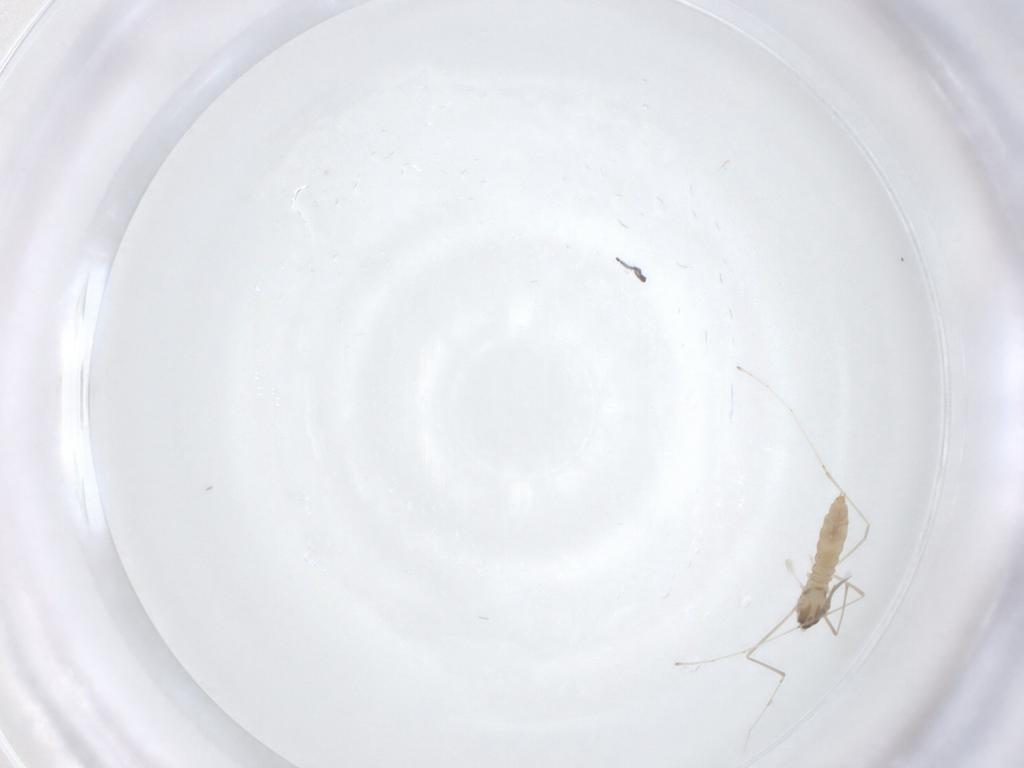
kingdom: Animalia
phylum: Arthropoda
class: Insecta
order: Diptera
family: Cecidomyiidae
